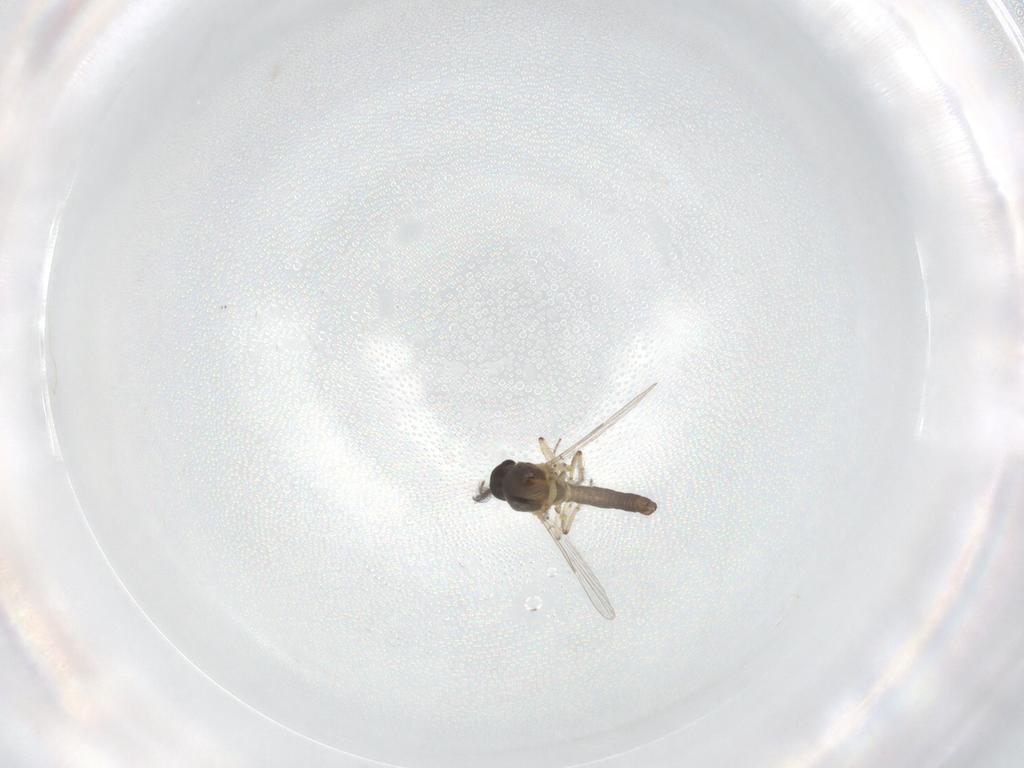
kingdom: Animalia
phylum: Arthropoda
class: Insecta
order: Diptera
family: Ceratopogonidae
